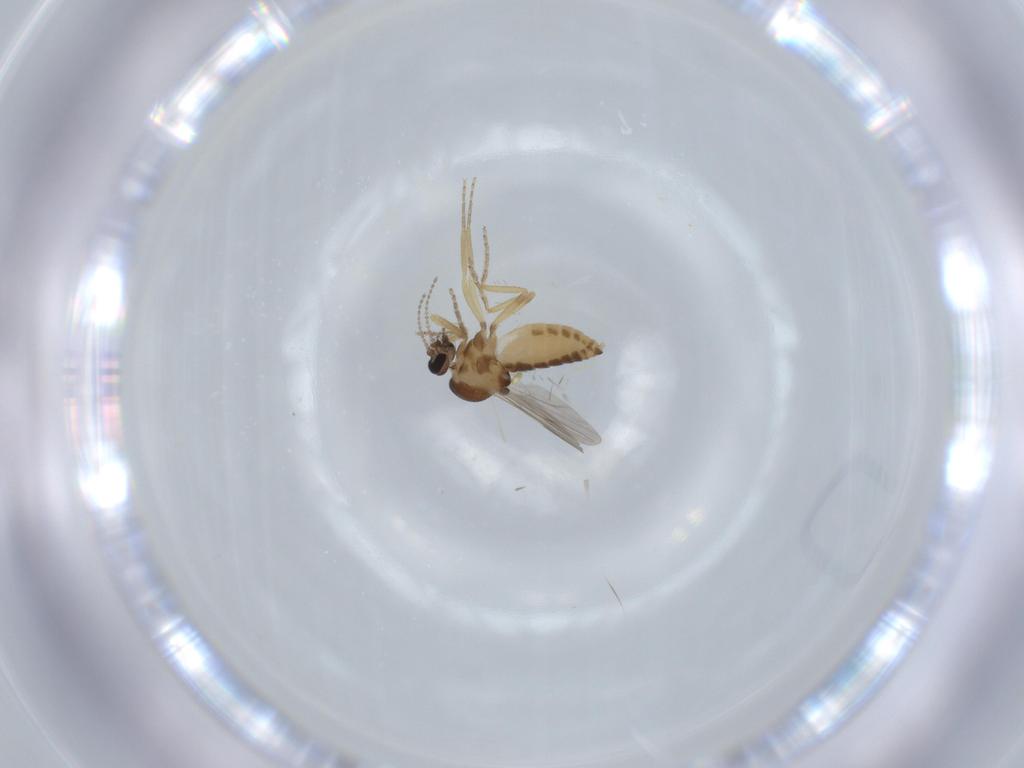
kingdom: Animalia
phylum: Arthropoda
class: Insecta
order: Diptera
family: Ceratopogonidae
